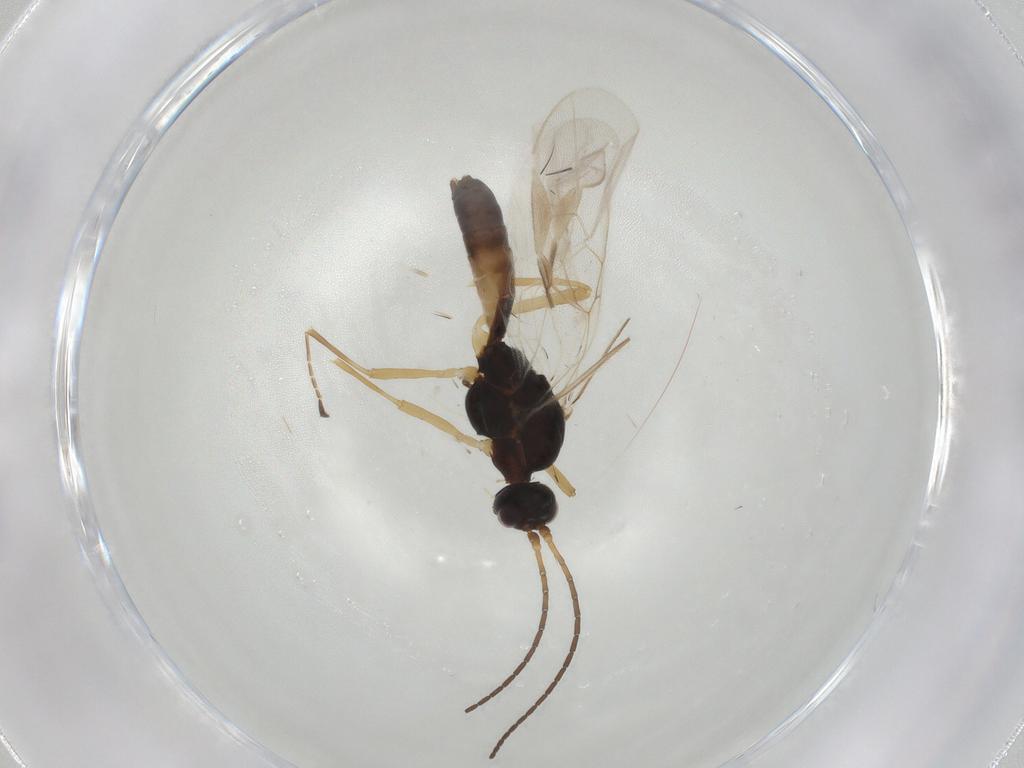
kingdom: Animalia
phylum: Arthropoda
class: Insecta
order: Hymenoptera
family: Braconidae
